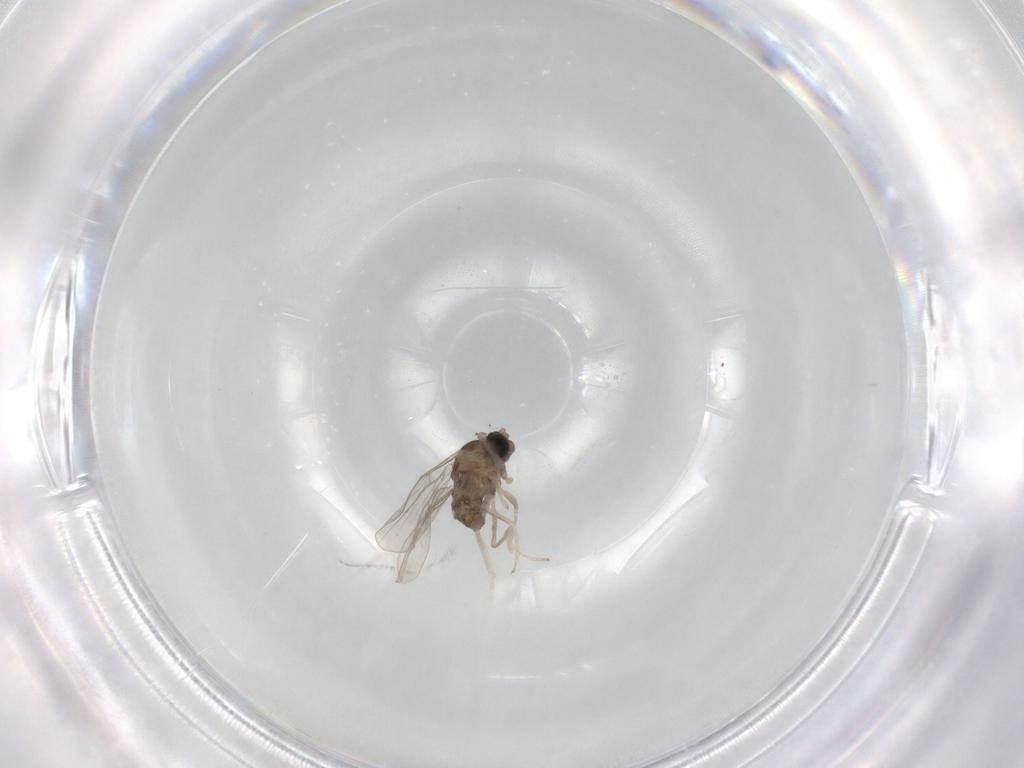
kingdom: Animalia
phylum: Arthropoda
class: Insecta
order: Diptera
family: Cecidomyiidae
